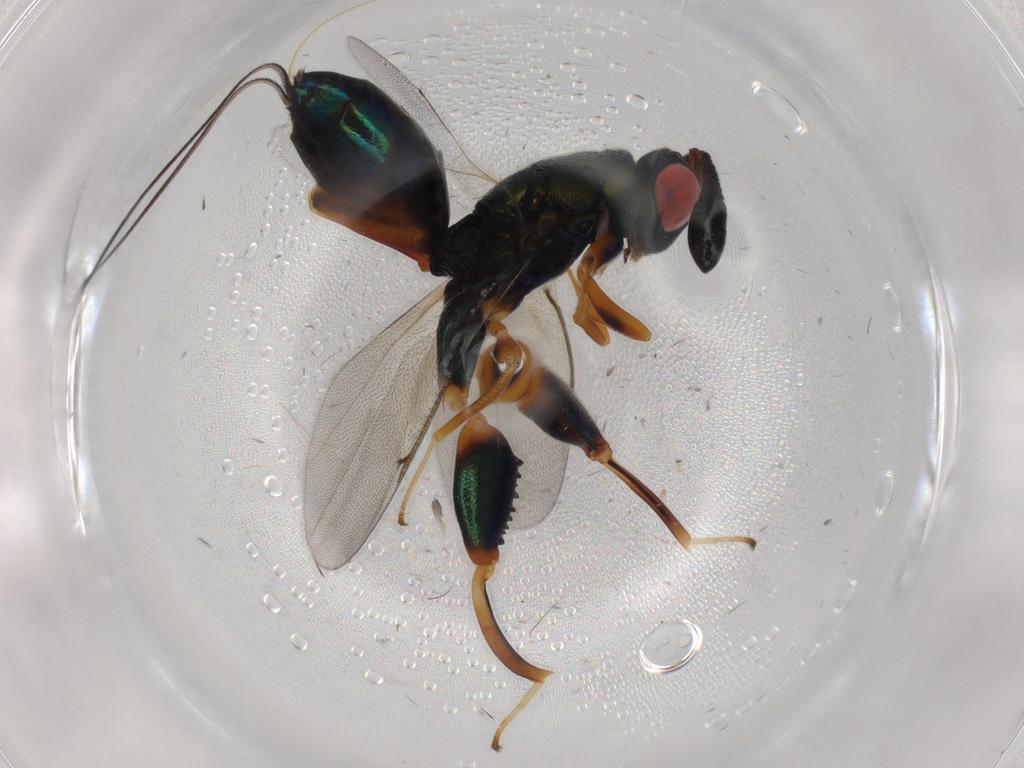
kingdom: Animalia
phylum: Arthropoda
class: Insecta
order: Hymenoptera
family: Torymidae
